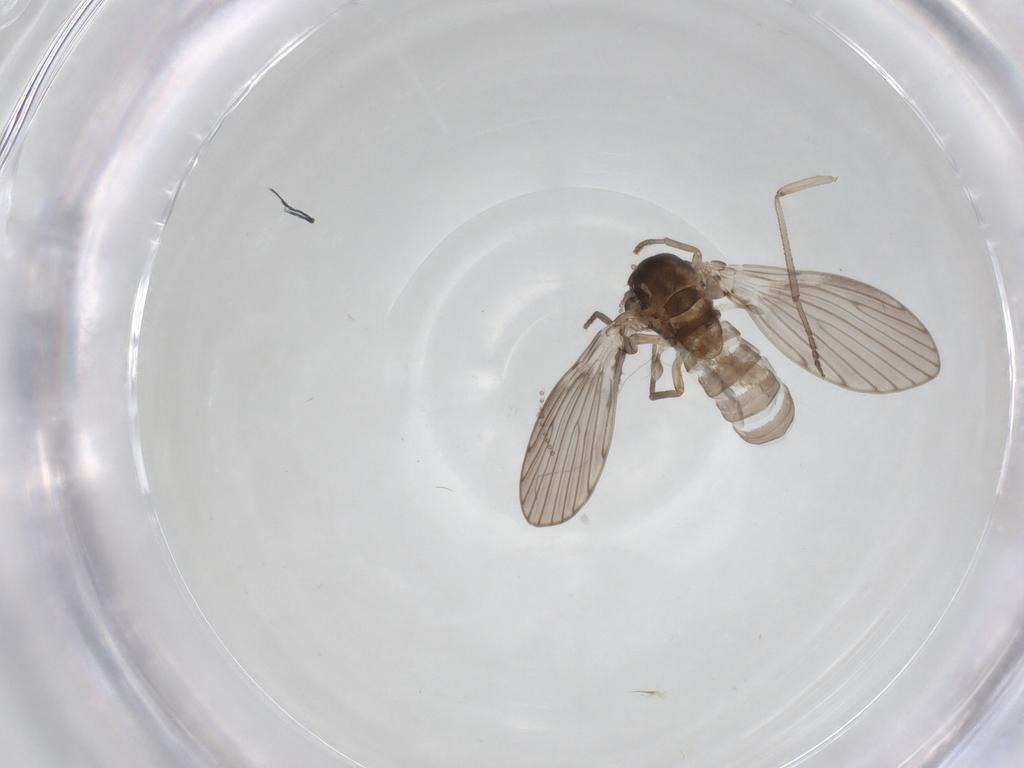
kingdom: Animalia
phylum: Arthropoda
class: Insecta
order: Diptera
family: Psychodidae
